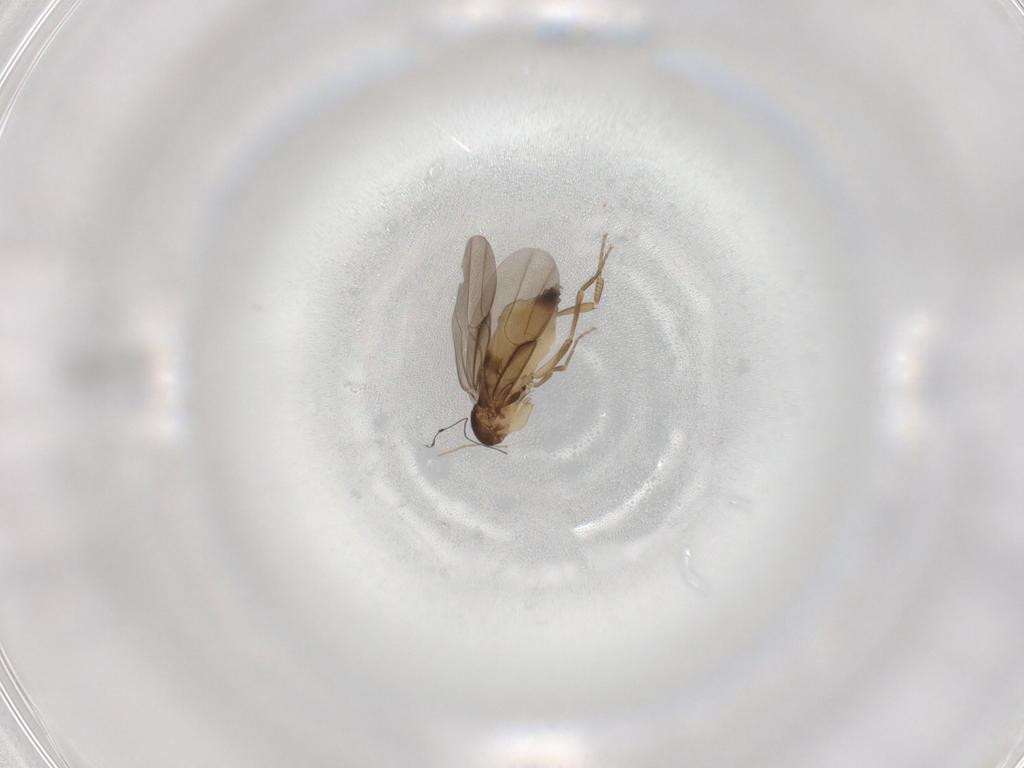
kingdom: Animalia
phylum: Arthropoda
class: Insecta
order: Diptera
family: Phoridae
